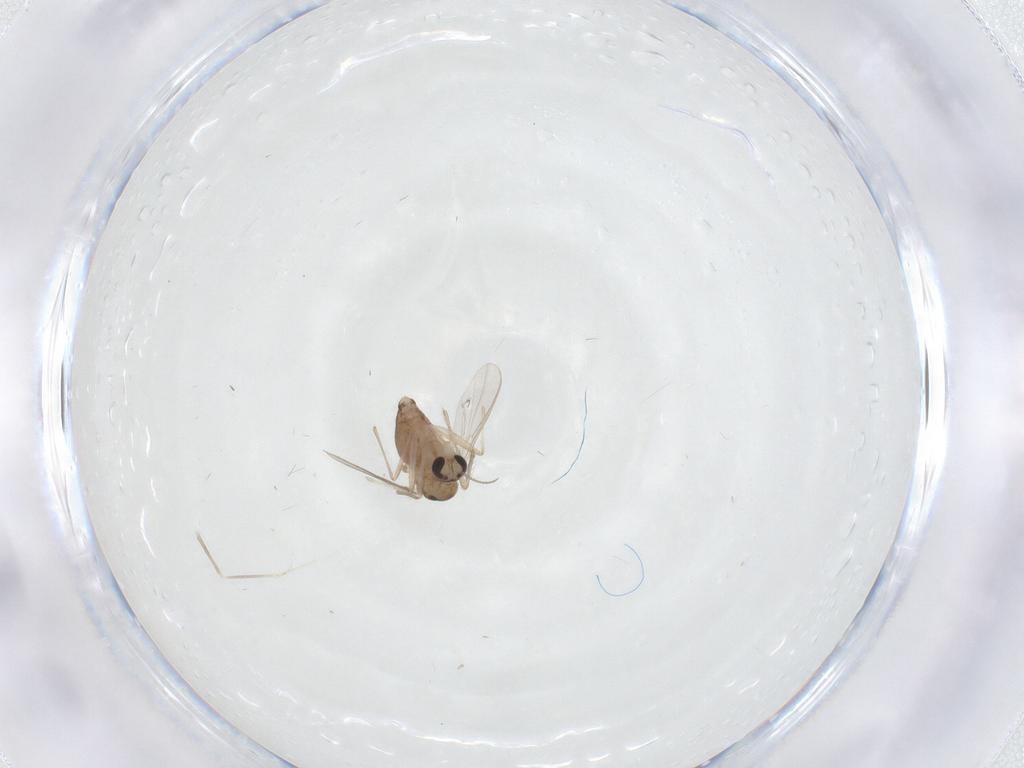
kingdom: Animalia
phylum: Arthropoda
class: Insecta
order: Diptera
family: Chironomidae
